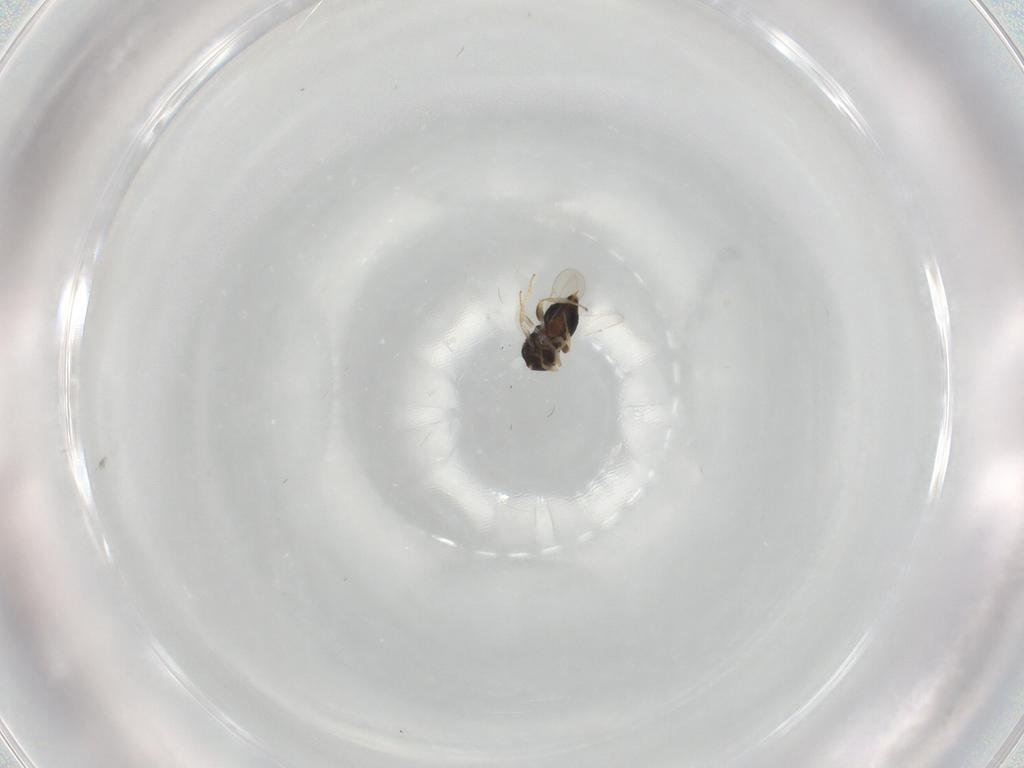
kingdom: Animalia
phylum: Arthropoda
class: Insecta
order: Hymenoptera
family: Aphelinidae
